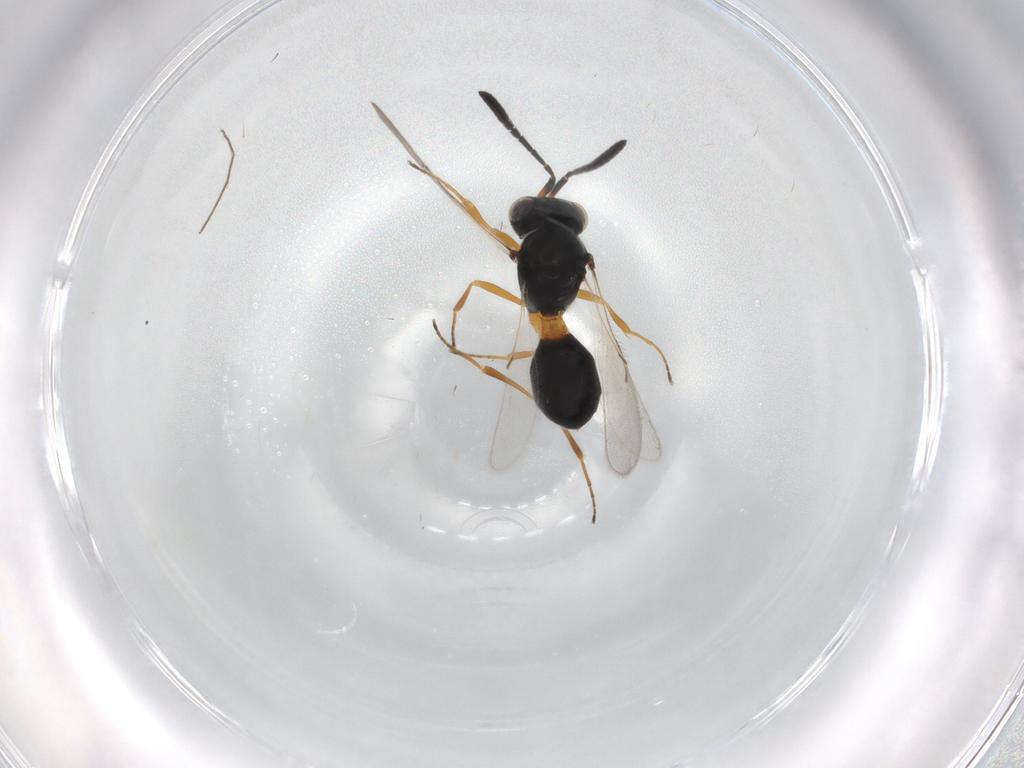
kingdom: Animalia
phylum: Arthropoda
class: Insecta
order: Hymenoptera
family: Scelionidae
